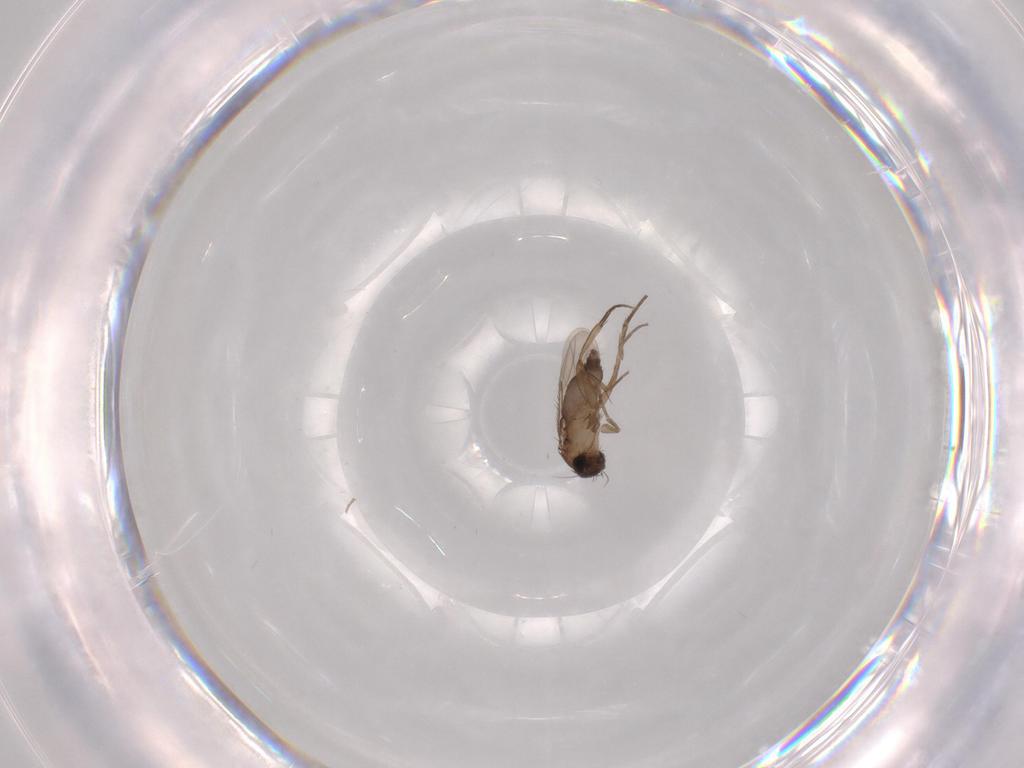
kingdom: Animalia
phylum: Arthropoda
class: Insecta
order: Diptera
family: Phoridae
